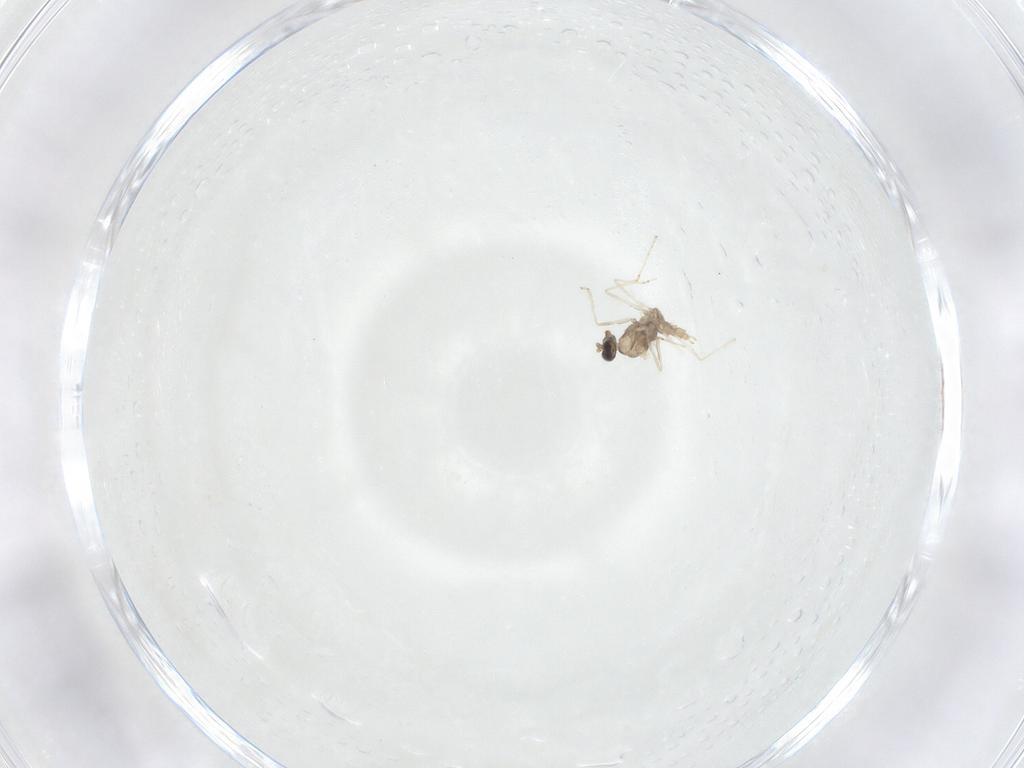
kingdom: Animalia
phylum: Arthropoda
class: Insecta
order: Diptera
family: Cecidomyiidae
